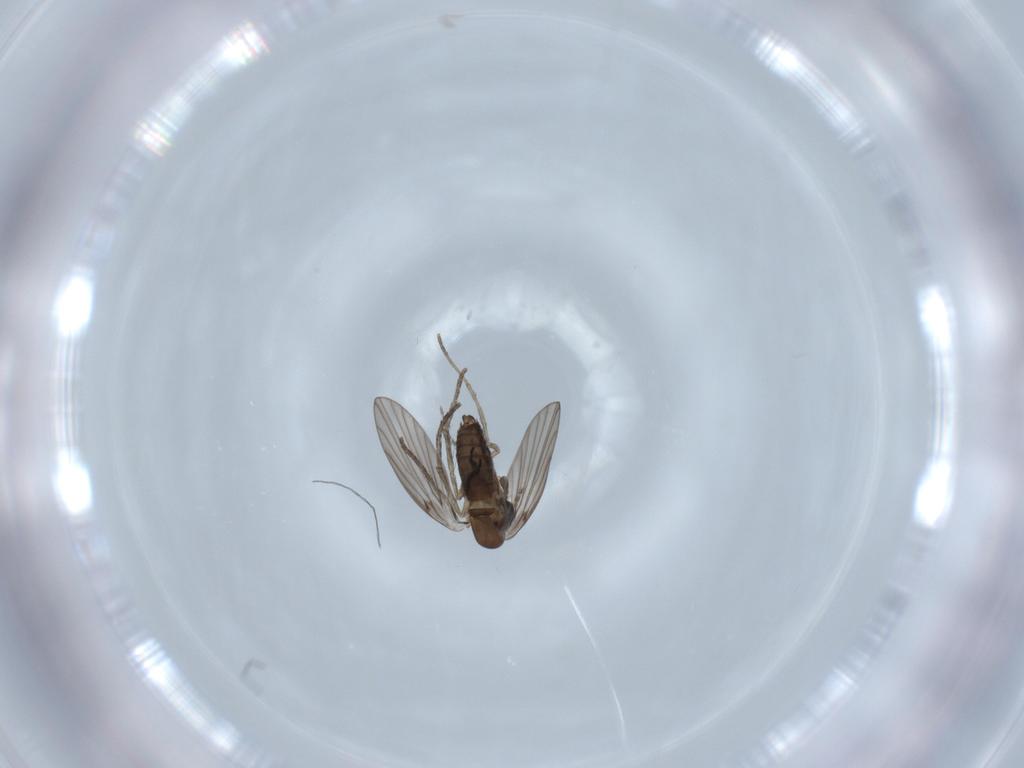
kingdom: Animalia
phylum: Arthropoda
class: Insecta
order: Diptera
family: Psychodidae
